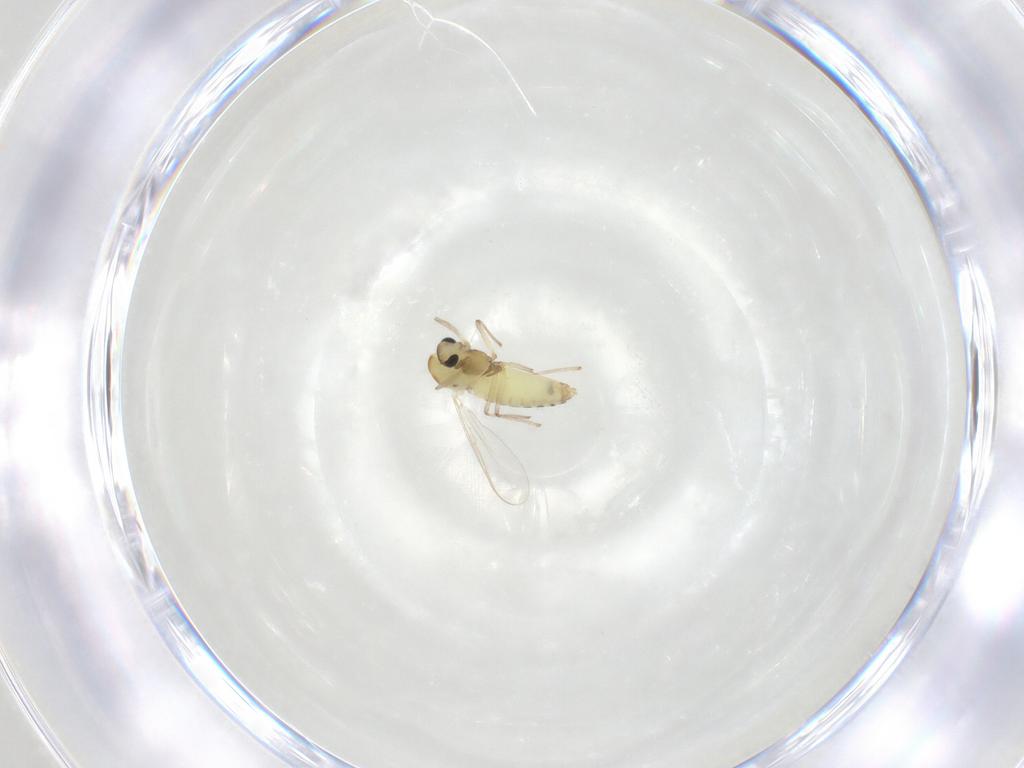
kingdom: Animalia
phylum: Arthropoda
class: Insecta
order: Diptera
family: Chironomidae
